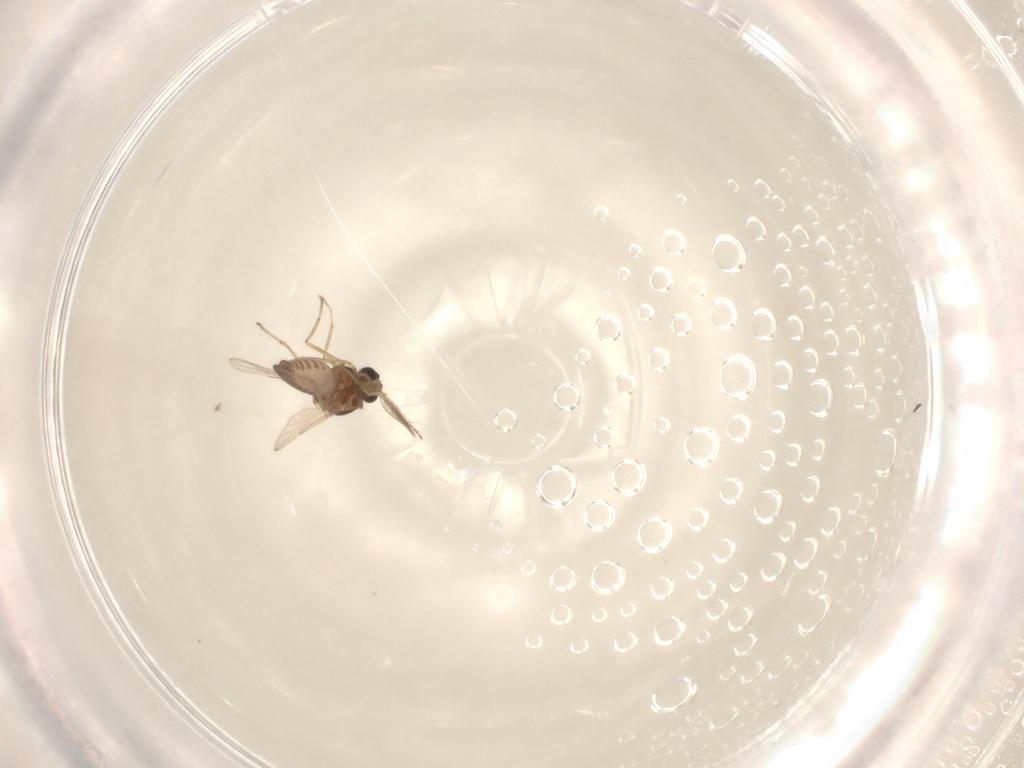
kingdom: Animalia
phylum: Arthropoda
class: Insecta
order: Diptera
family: Ceratopogonidae
